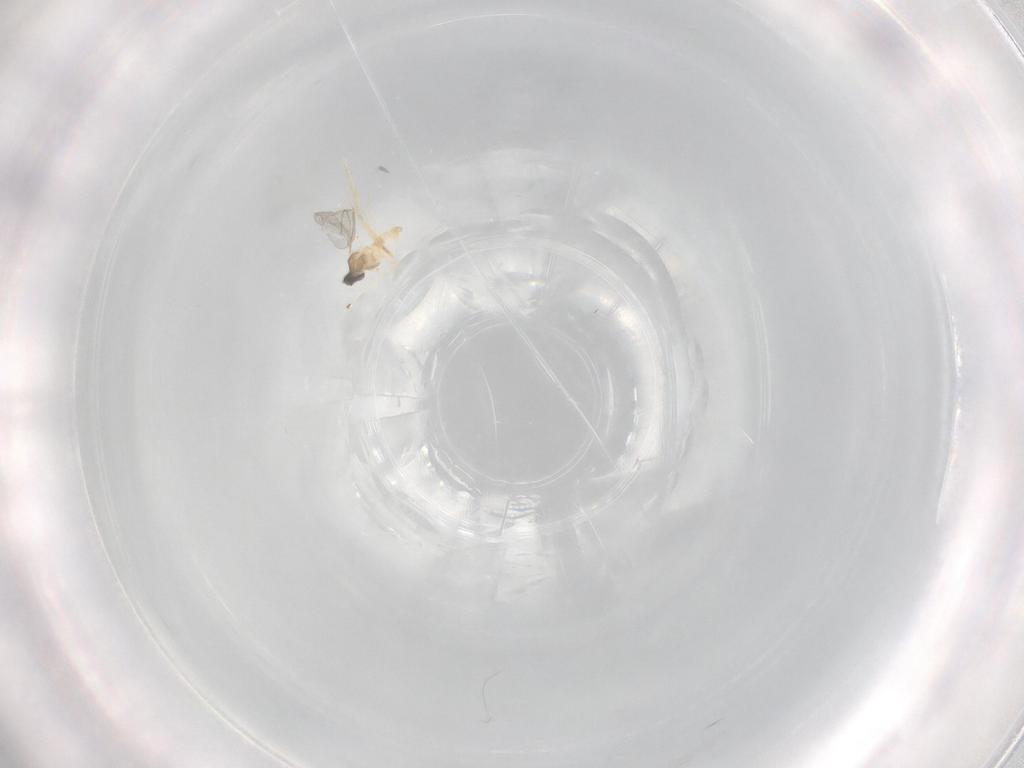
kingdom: Animalia
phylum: Arthropoda
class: Insecta
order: Diptera
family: Cecidomyiidae
